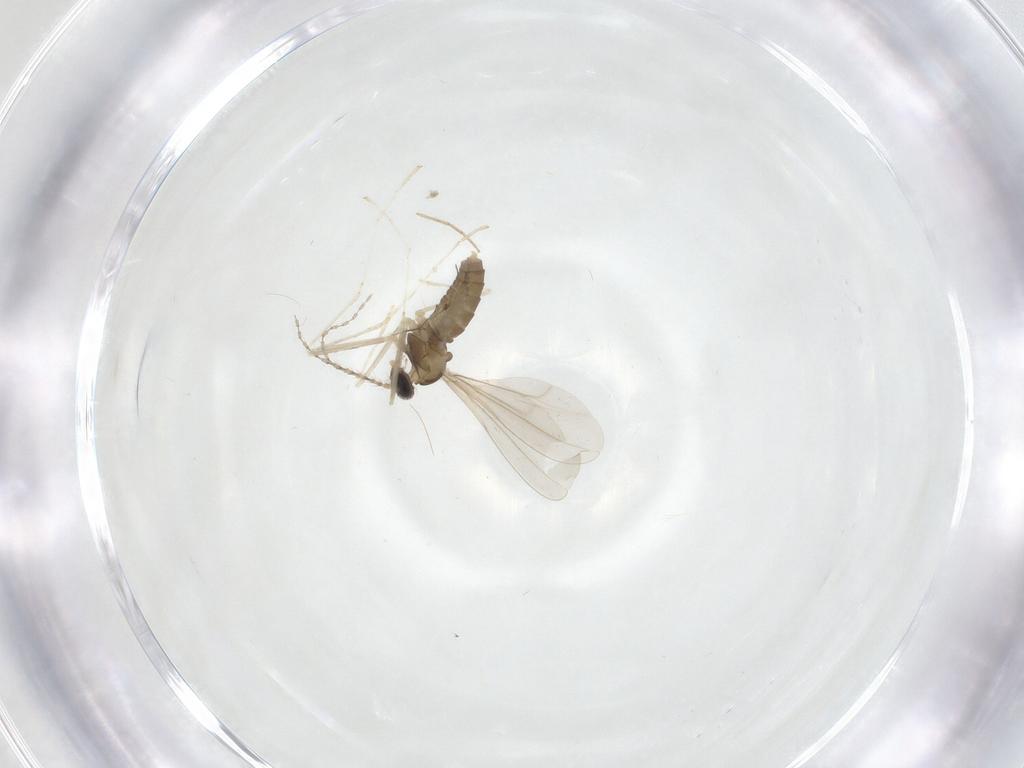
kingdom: Animalia
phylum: Arthropoda
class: Insecta
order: Diptera
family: Cecidomyiidae
